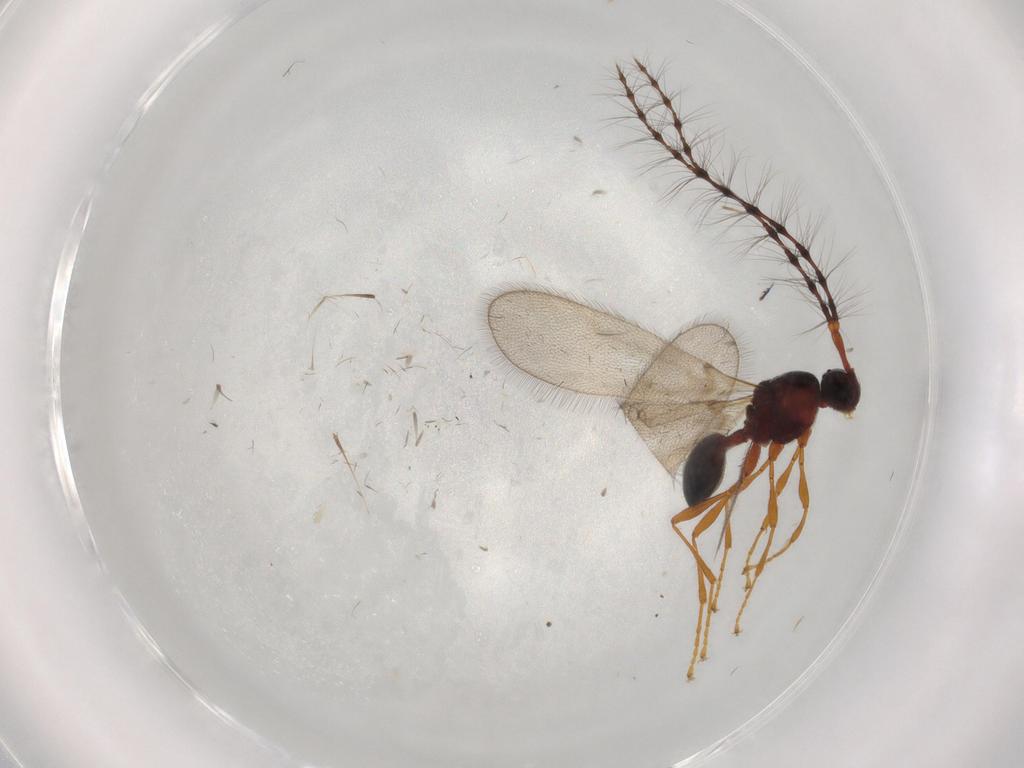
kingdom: Animalia
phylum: Arthropoda
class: Insecta
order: Hymenoptera
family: Diapriidae
